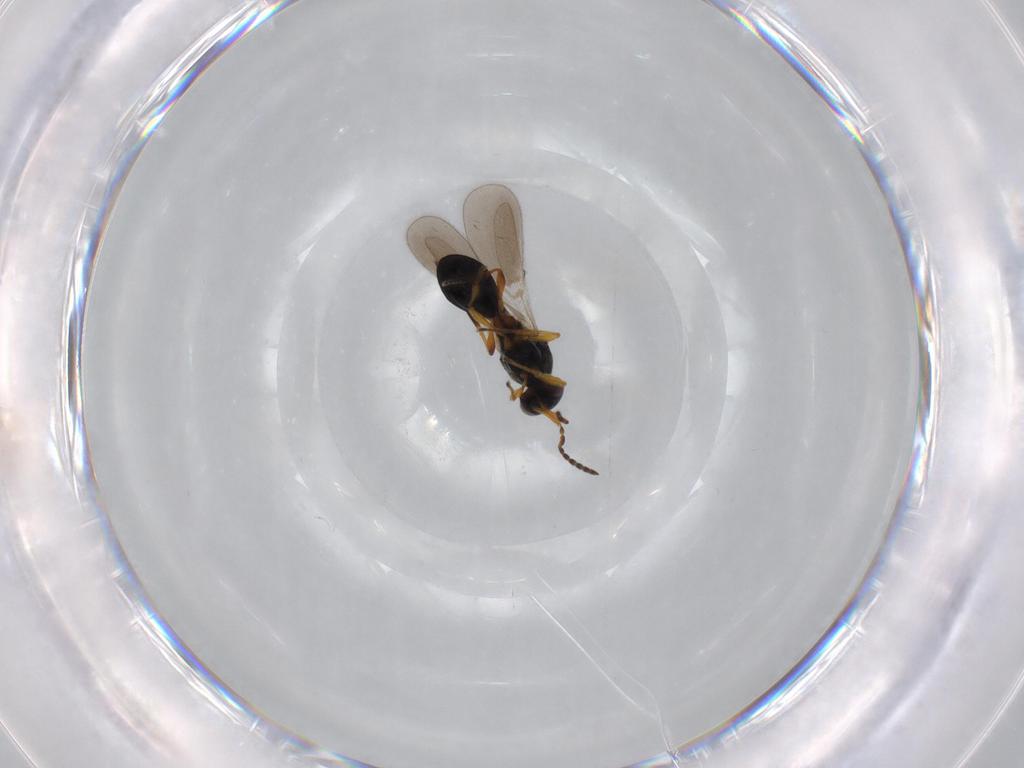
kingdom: Animalia
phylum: Arthropoda
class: Insecta
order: Hymenoptera
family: Platygastridae
